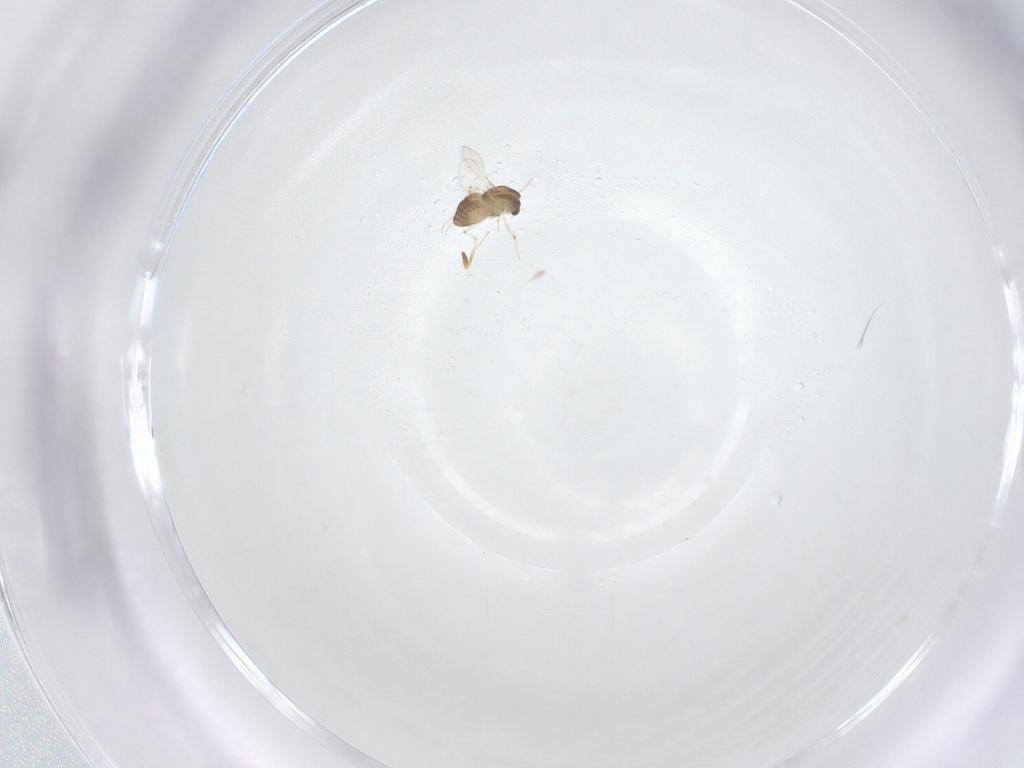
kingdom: Animalia
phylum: Arthropoda
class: Insecta
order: Diptera
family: Chironomidae
